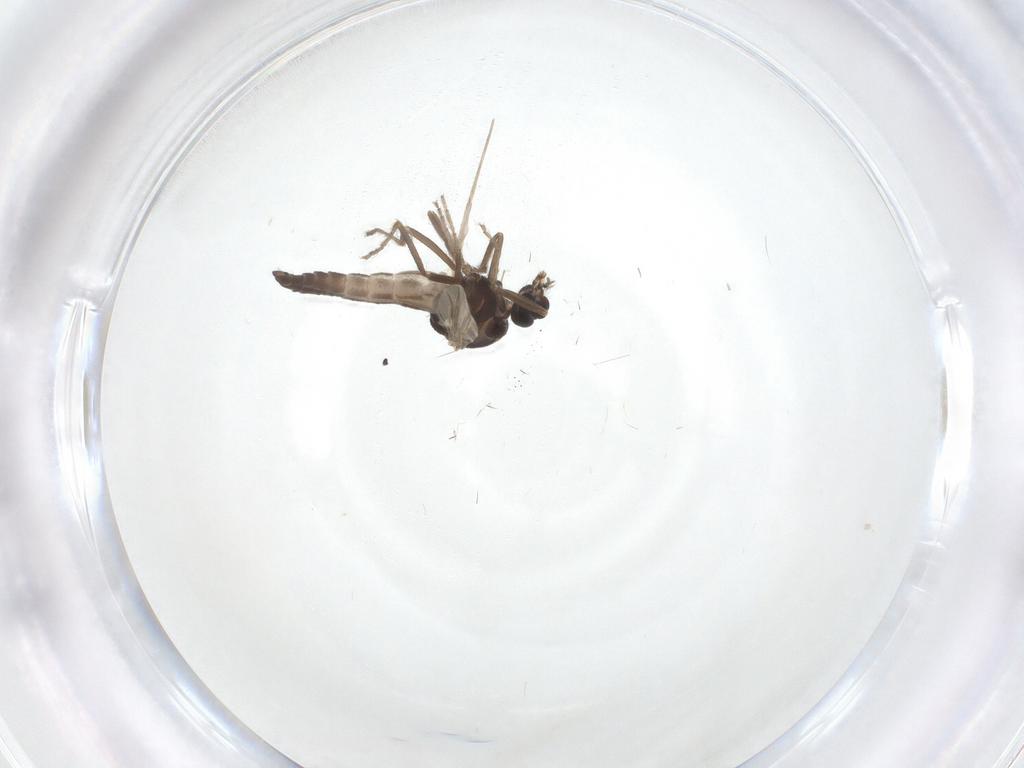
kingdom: Animalia
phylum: Arthropoda
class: Insecta
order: Diptera
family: Ceratopogonidae
